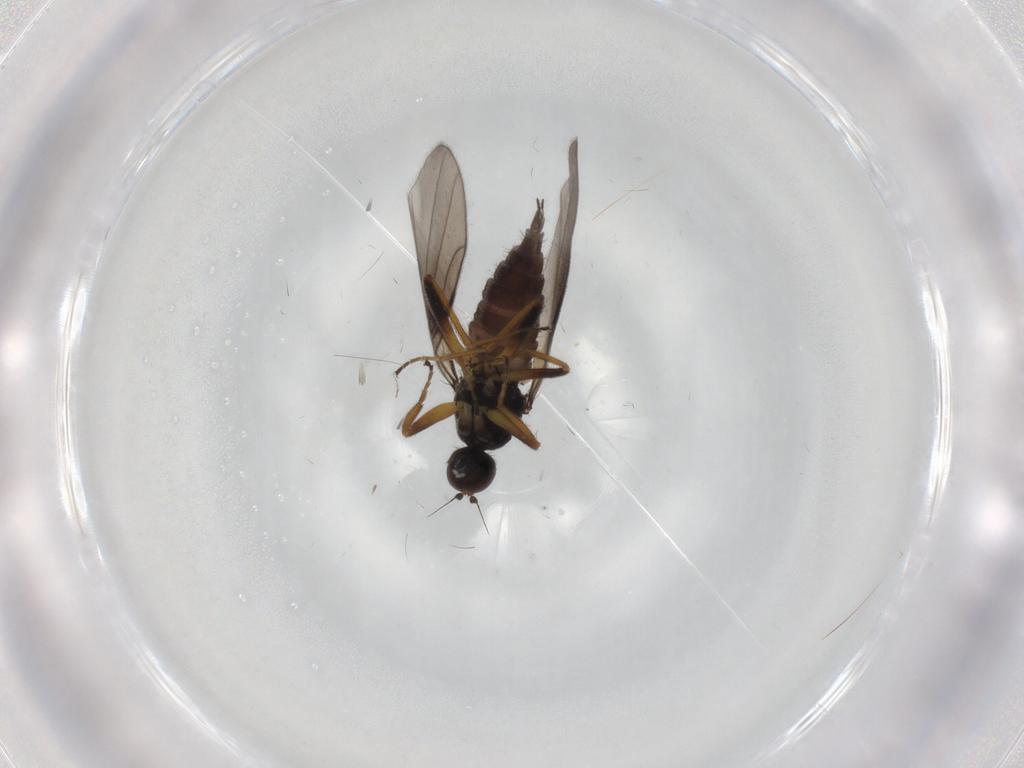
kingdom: Animalia
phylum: Arthropoda
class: Insecta
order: Diptera
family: Hybotidae
